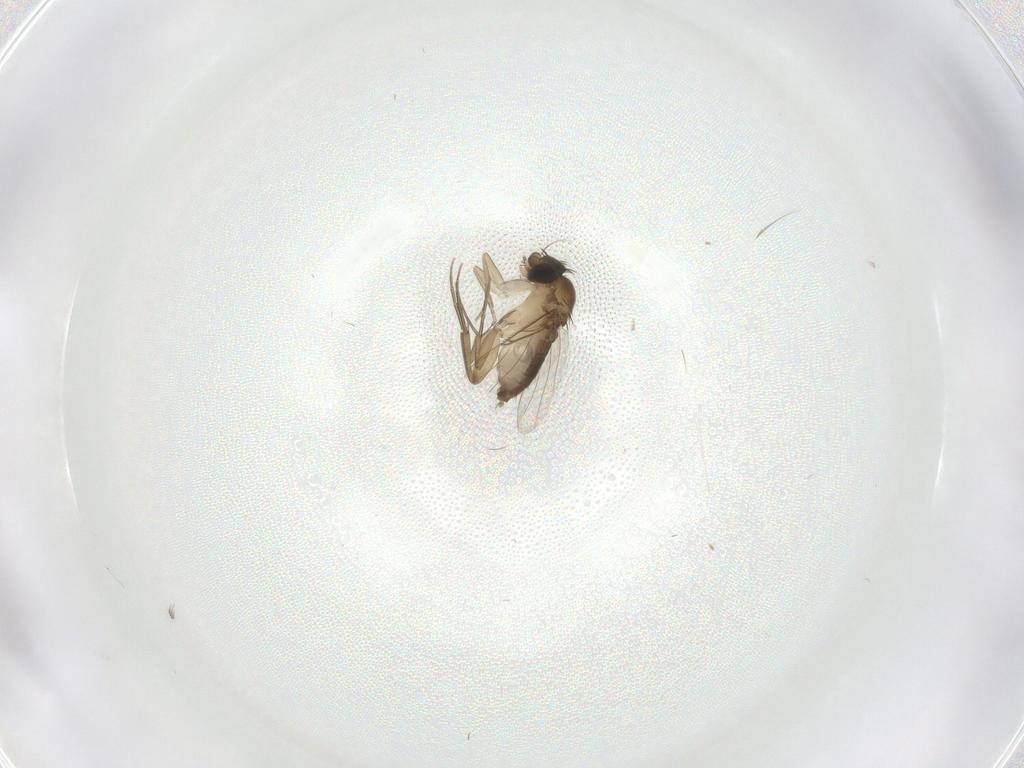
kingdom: Animalia
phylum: Arthropoda
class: Insecta
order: Diptera
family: Phoridae
